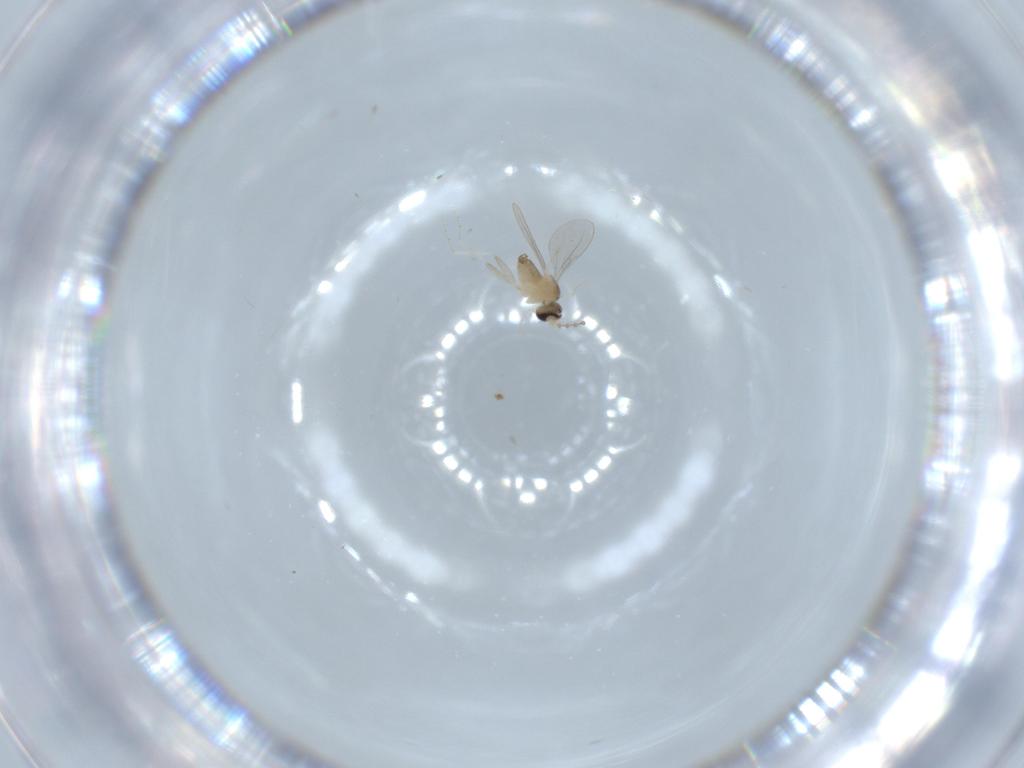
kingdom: Animalia
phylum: Arthropoda
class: Insecta
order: Diptera
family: Cecidomyiidae
